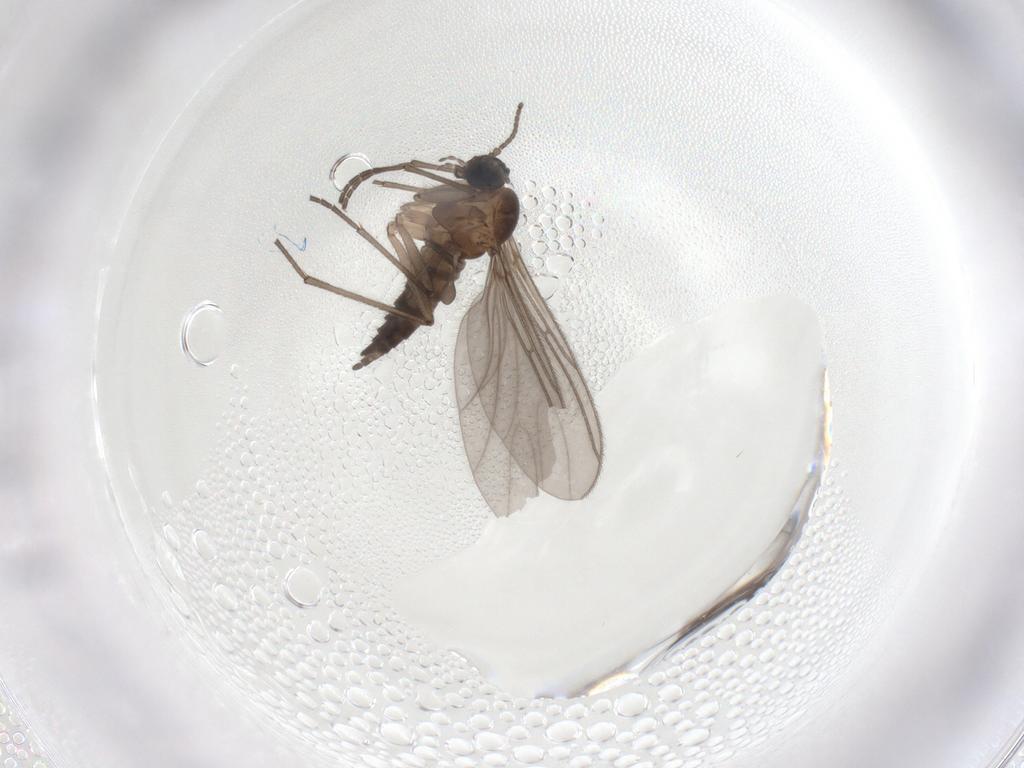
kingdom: Animalia
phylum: Arthropoda
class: Insecta
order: Diptera
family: Sciaridae
